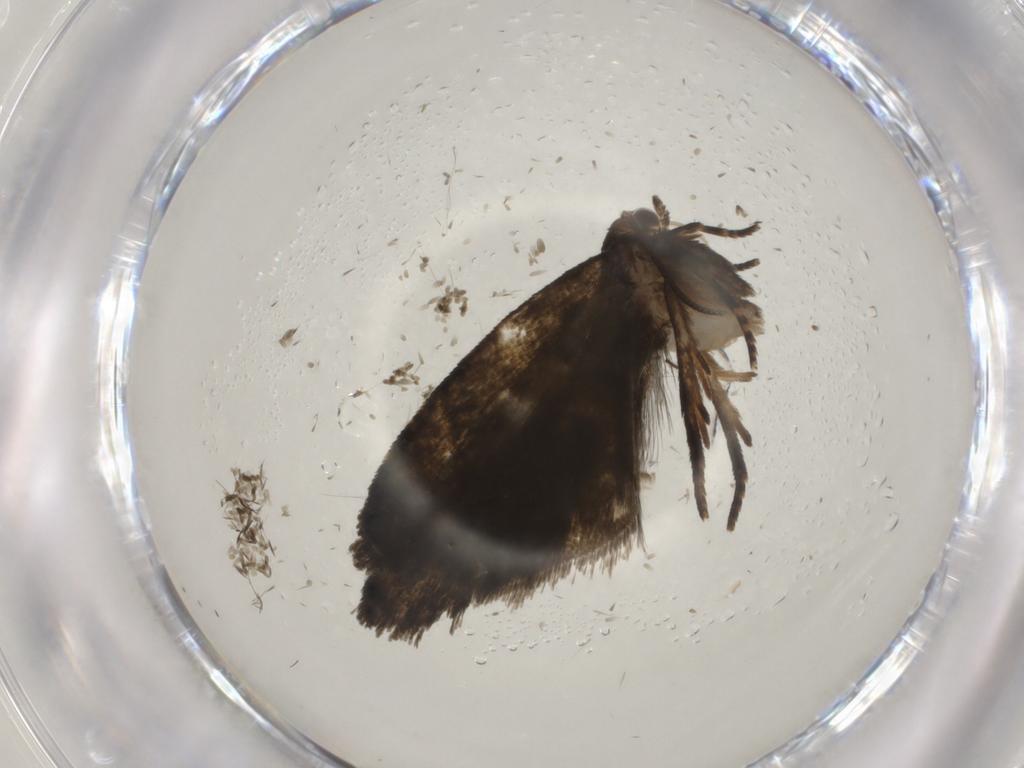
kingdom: Animalia
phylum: Arthropoda
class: Insecta
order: Lepidoptera
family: Tortricidae
